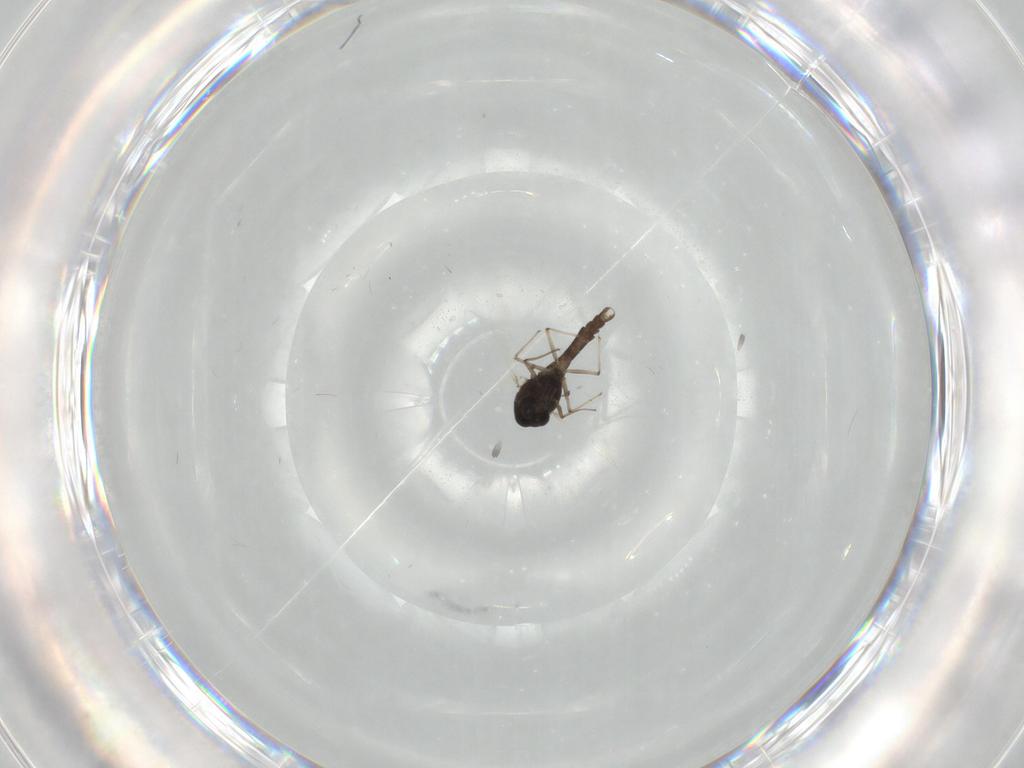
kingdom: Animalia
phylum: Arthropoda
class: Insecta
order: Diptera
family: Chironomidae
